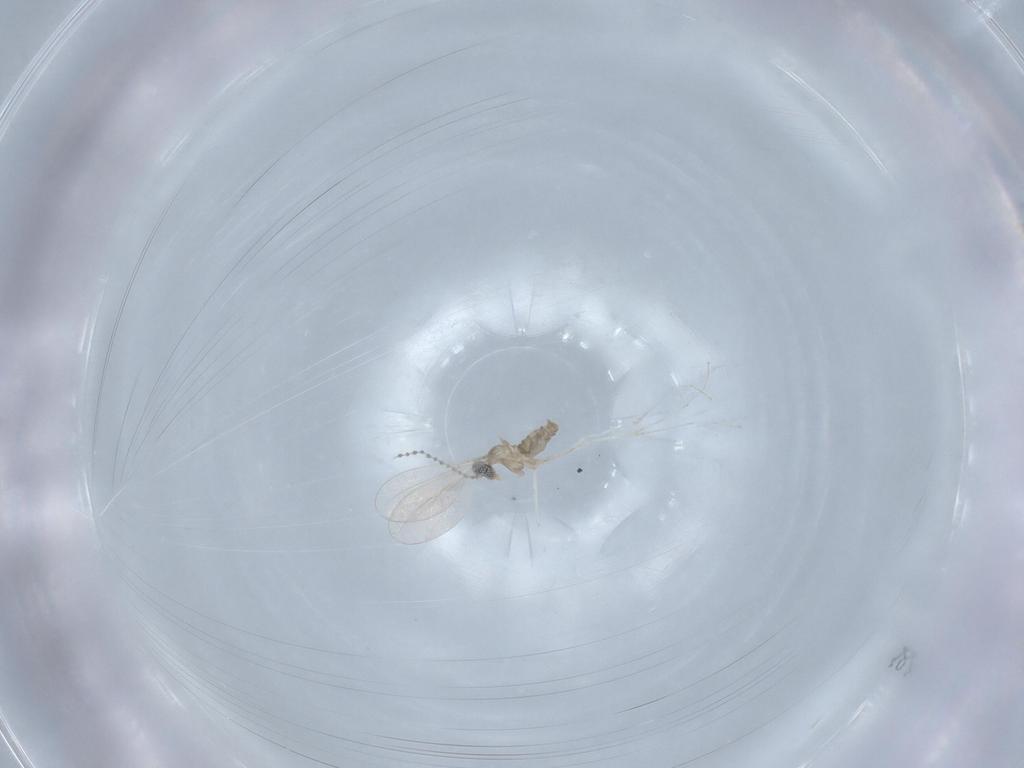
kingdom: Animalia
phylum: Arthropoda
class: Insecta
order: Diptera
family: Cecidomyiidae
